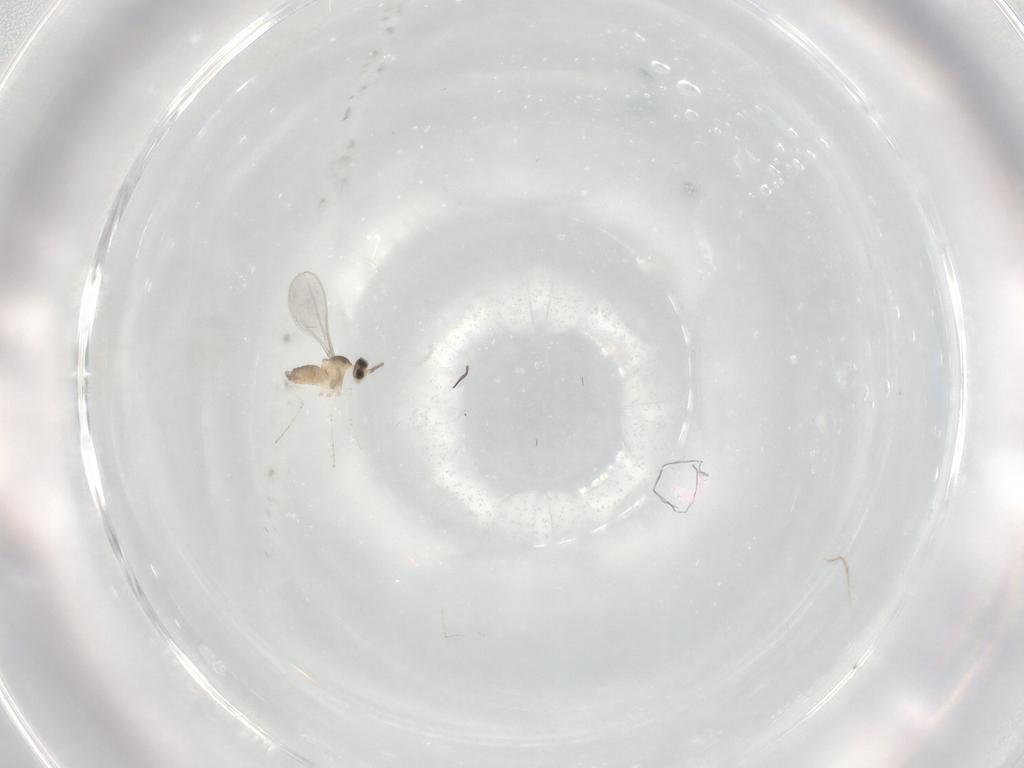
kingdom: Animalia
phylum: Arthropoda
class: Insecta
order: Diptera
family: Cecidomyiidae
